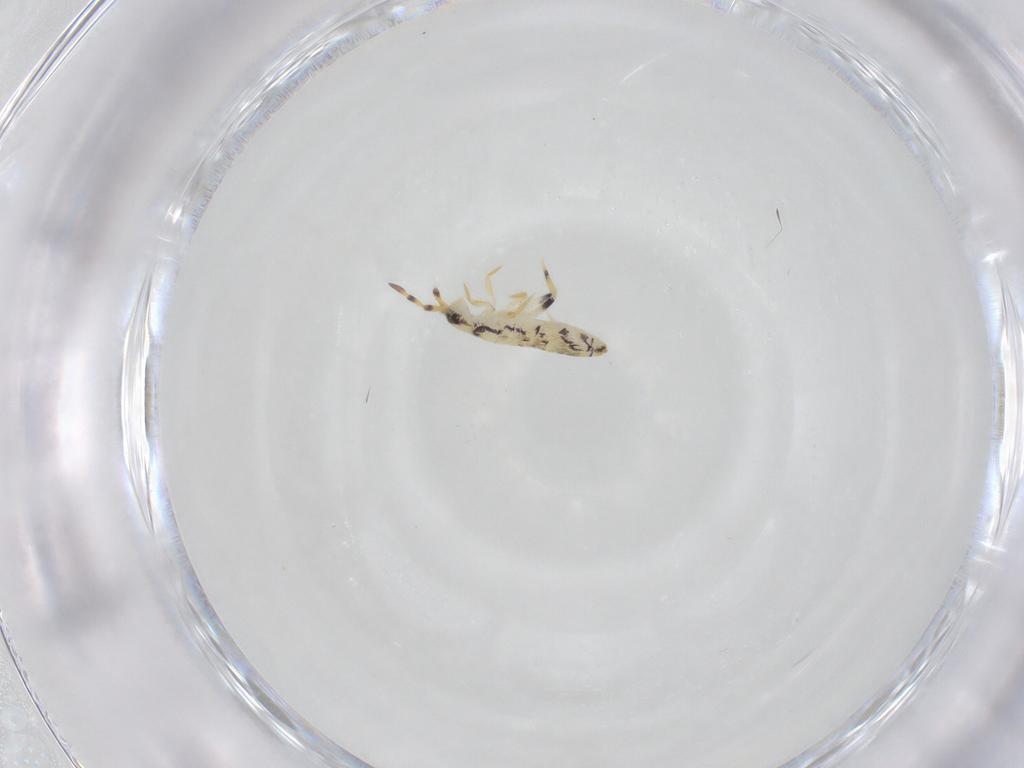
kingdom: Animalia
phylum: Arthropoda
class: Collembola
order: Entomobryomorpha
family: Isotomidae
